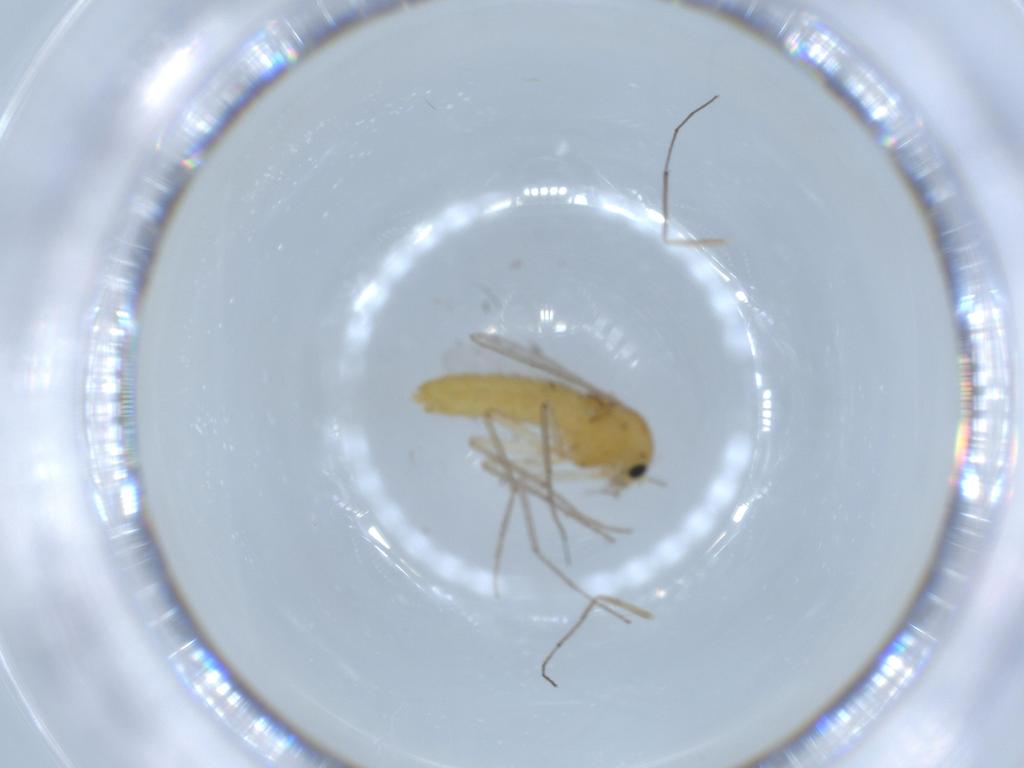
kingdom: Animalia
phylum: Arthropoda
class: Insecta
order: Diptera
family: Chironomidae
